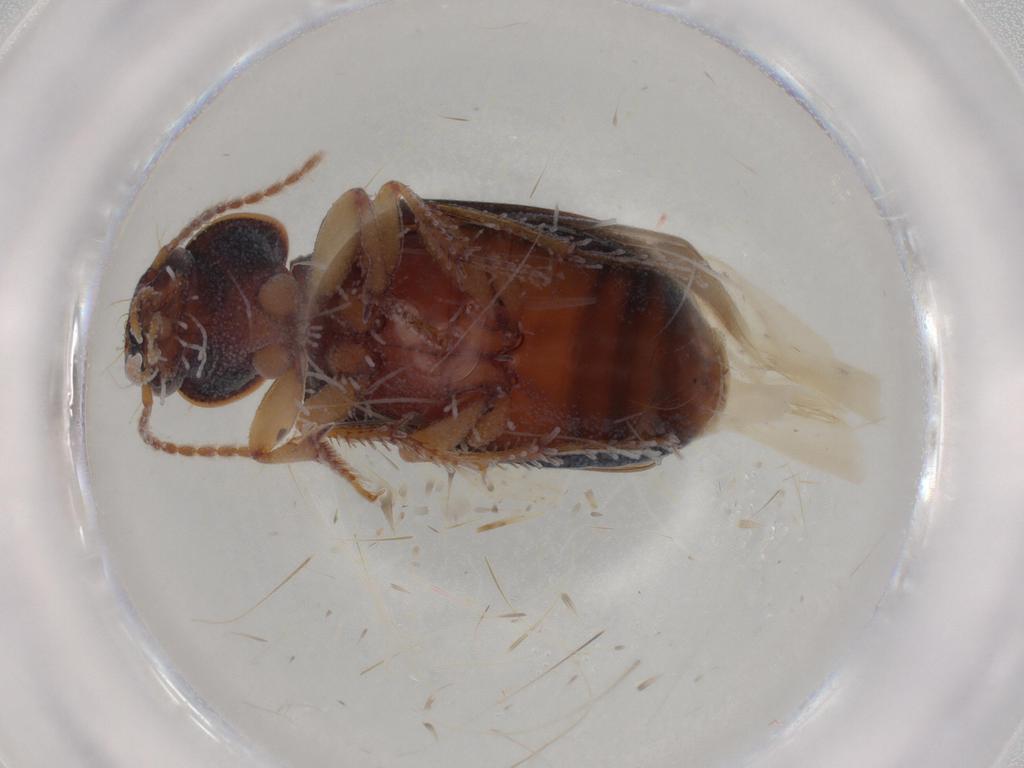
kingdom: Animalia
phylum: Arthropoda
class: Insecta
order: Coleoptera
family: Carabidae
